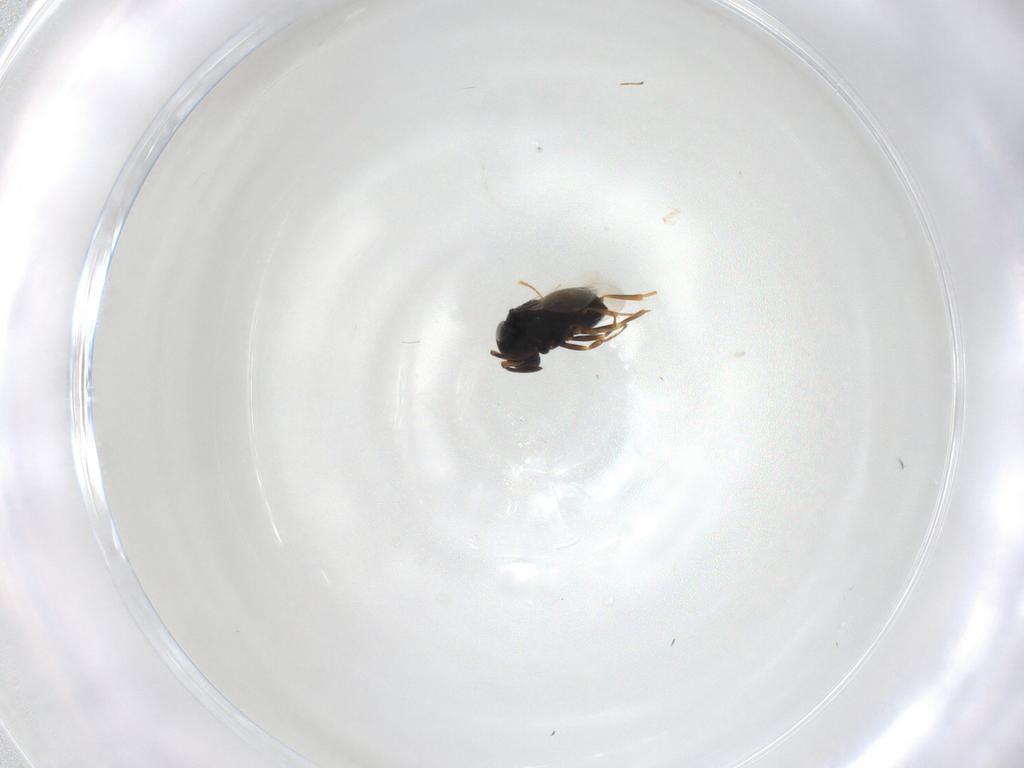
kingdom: Animalia
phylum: Arthropoda
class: Insecta
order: Hymenoptera
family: Scelionidae
